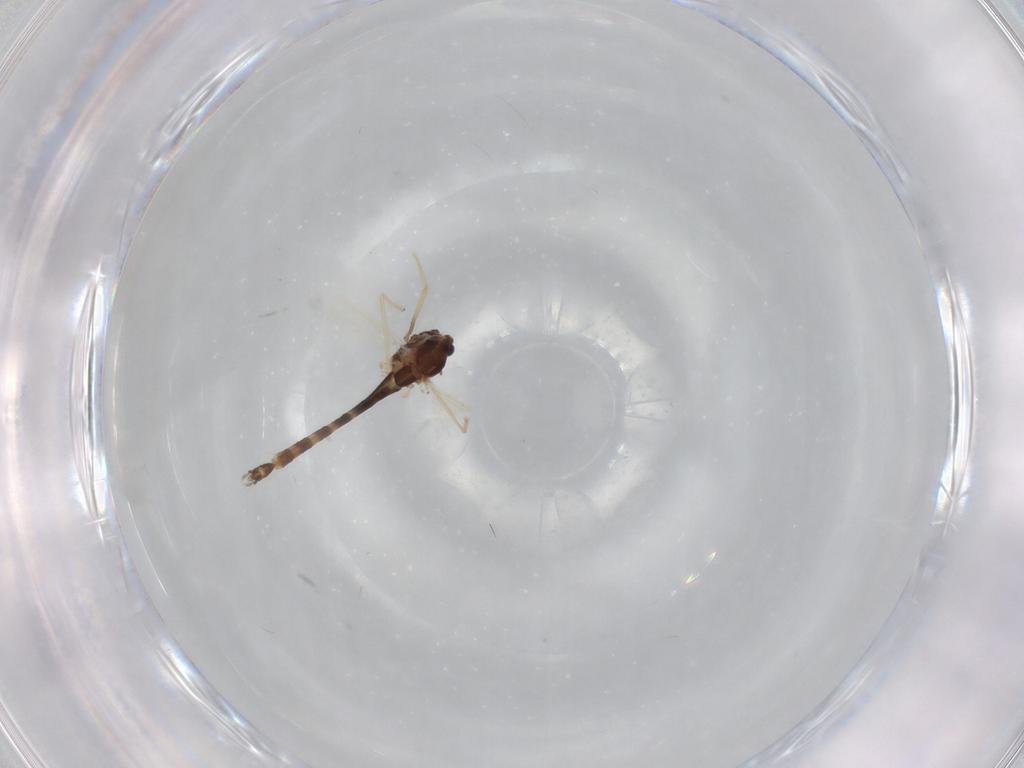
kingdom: Animalia
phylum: Arthropoda
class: Insecta
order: Diptera
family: Chironomidae
